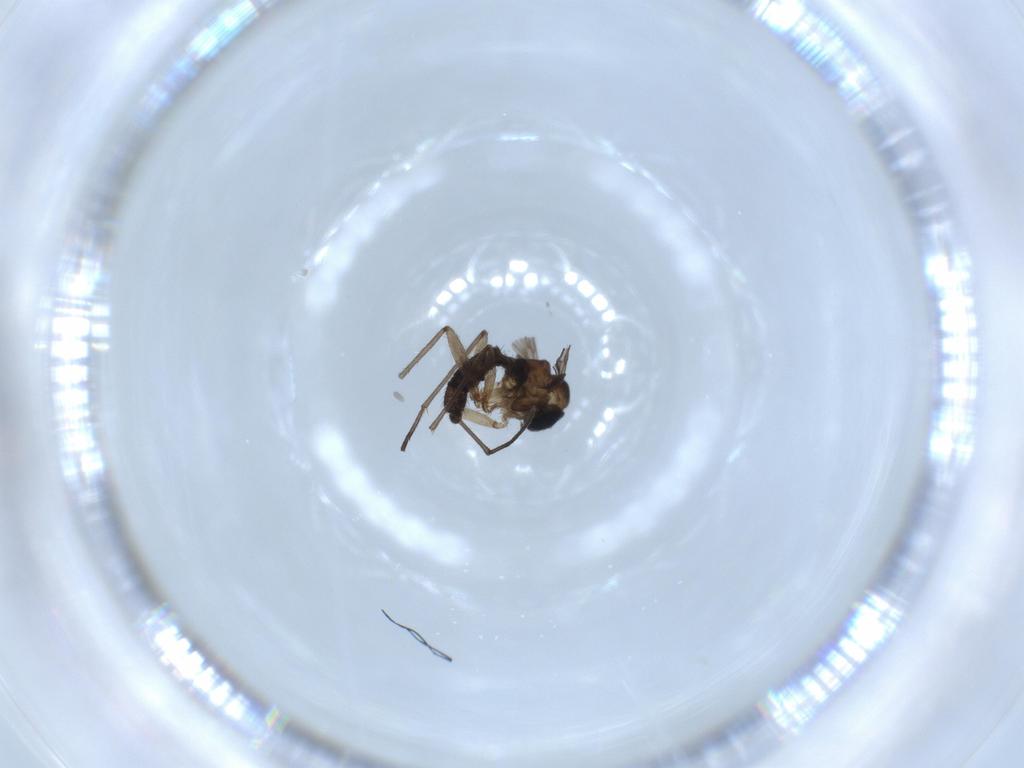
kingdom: Animalia
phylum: Arthropoda
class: Insecta
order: Diptera
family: Sciaridae
